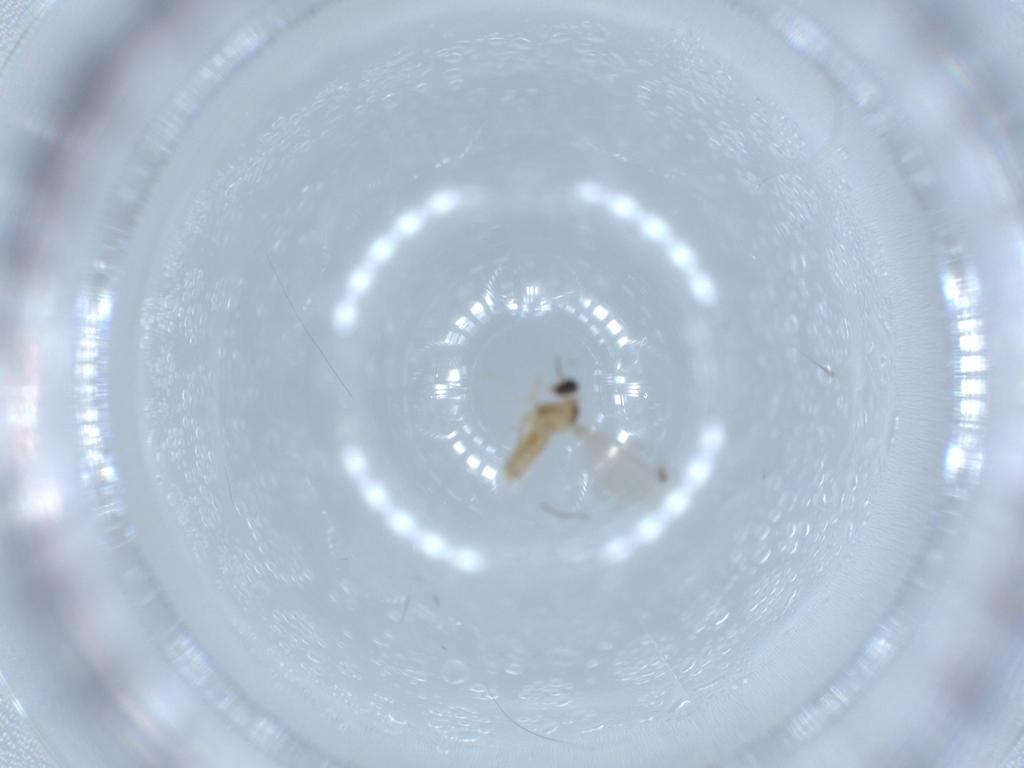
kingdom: Animalia
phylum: Arthropoda
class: Insecta
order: Diptera
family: Cecidomyiidae
